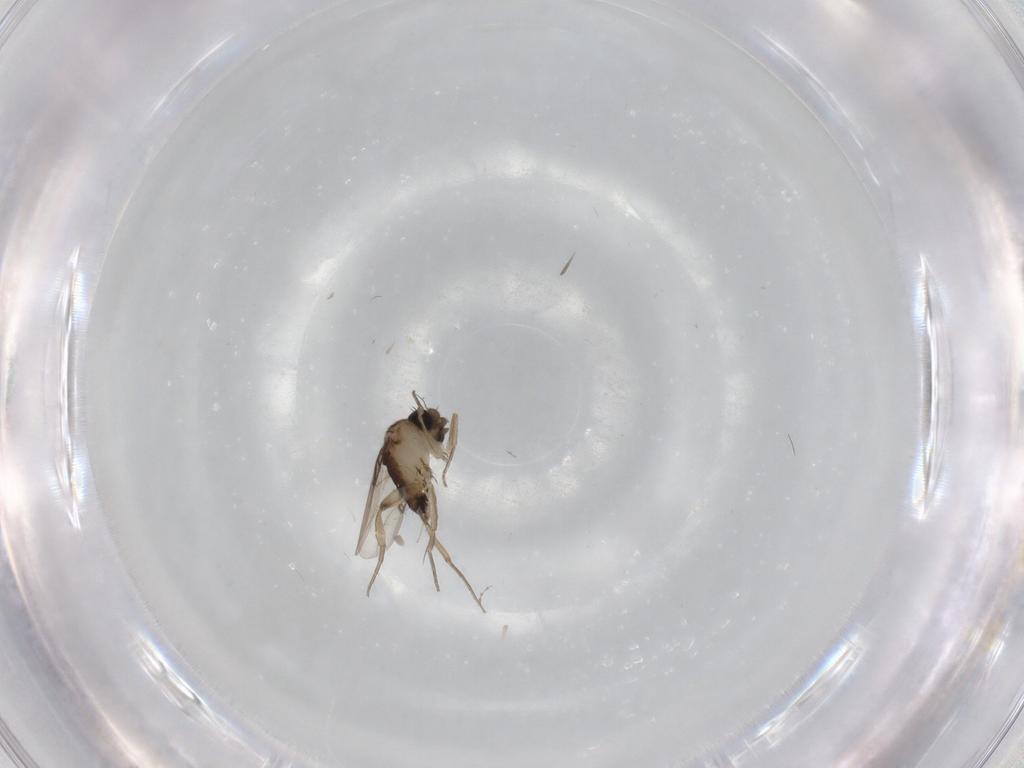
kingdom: Animalia
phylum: Arthropoda
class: Insecta
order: Diptera
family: Phoridae
